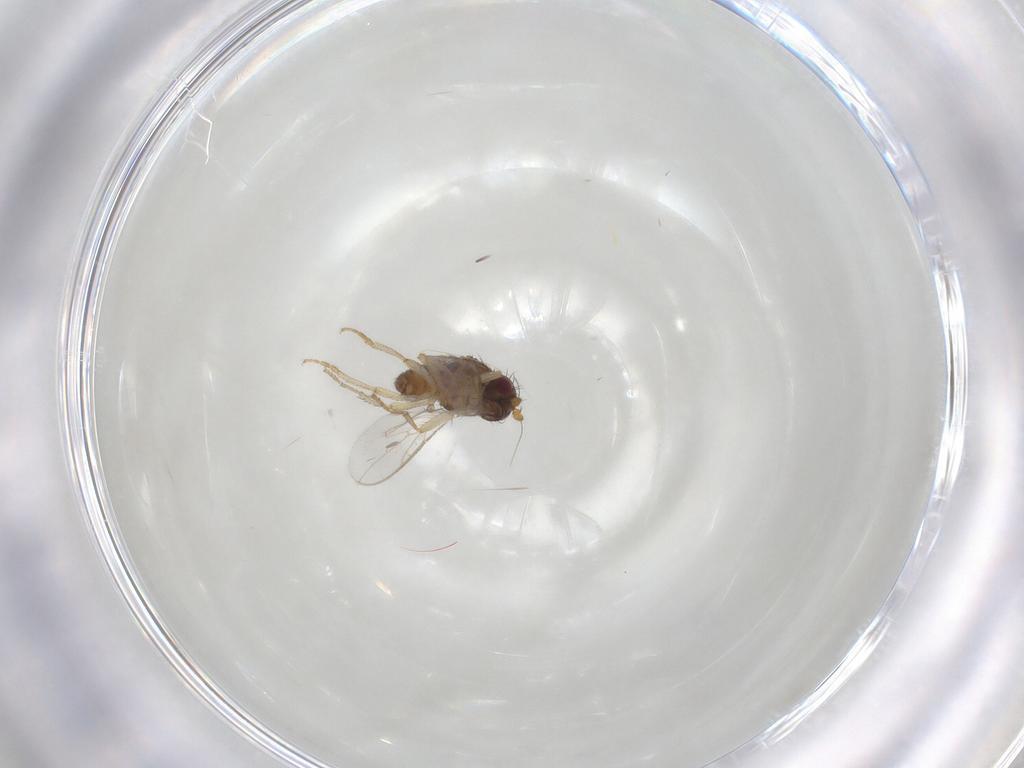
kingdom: Animalia
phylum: Arthropoda
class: Insecta
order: Diptera
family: Sphaeroceridae
